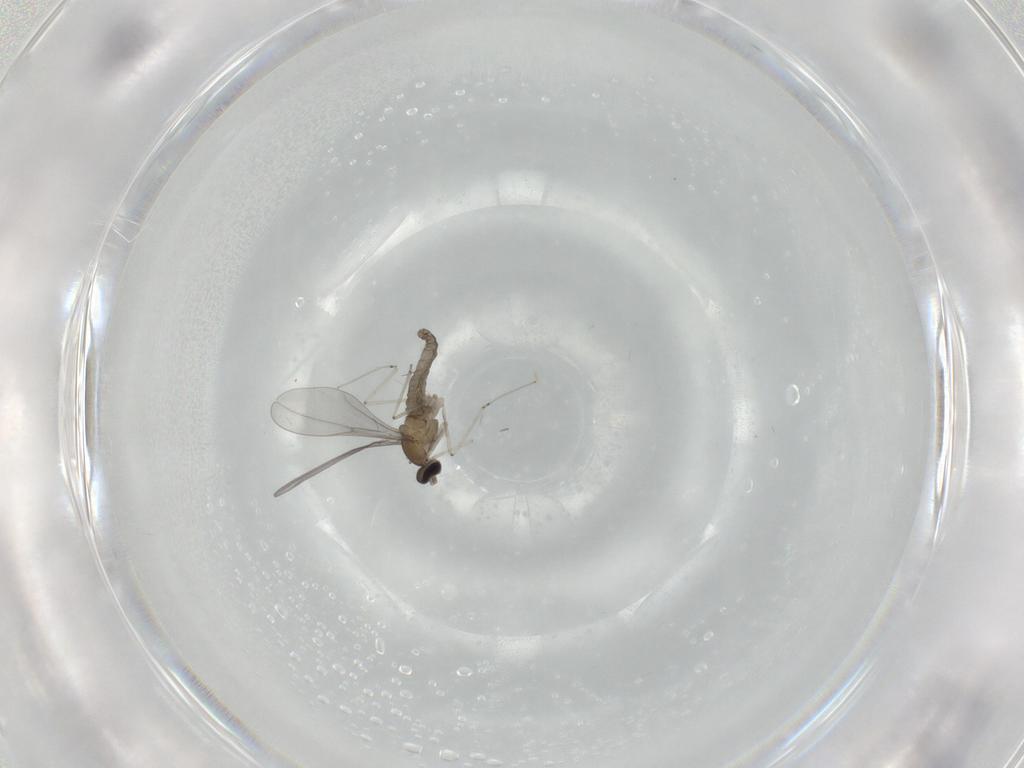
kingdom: Animalia
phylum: Arthropoda
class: Insecta
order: Diptera
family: Cecidomyiidae
